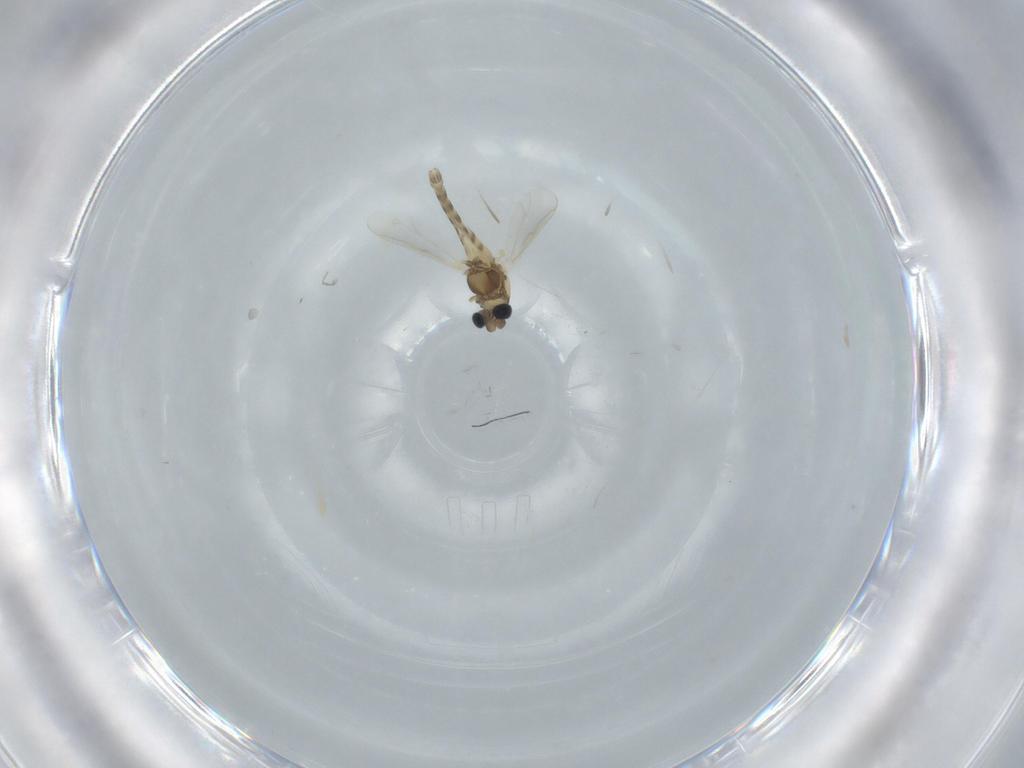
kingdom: Animalia
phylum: Arthropoda
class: Insecta
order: Diptera
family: Chironomidae
